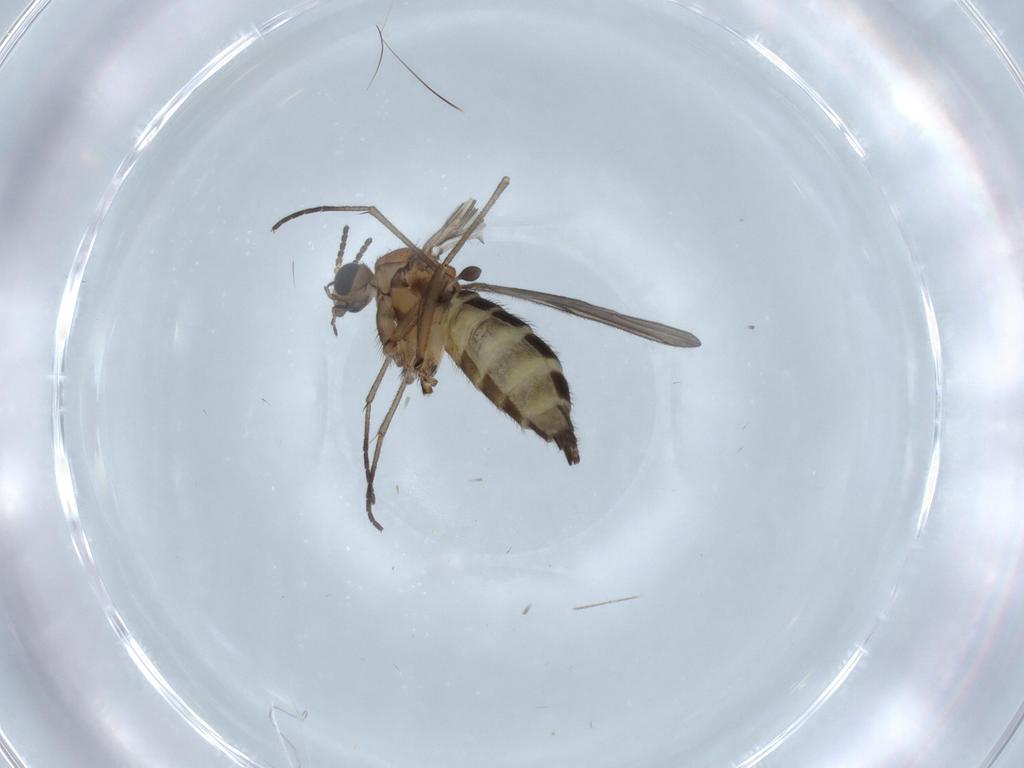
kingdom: Animalia
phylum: Arthropoda
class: Insecta
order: Diptera
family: Sciaridae
